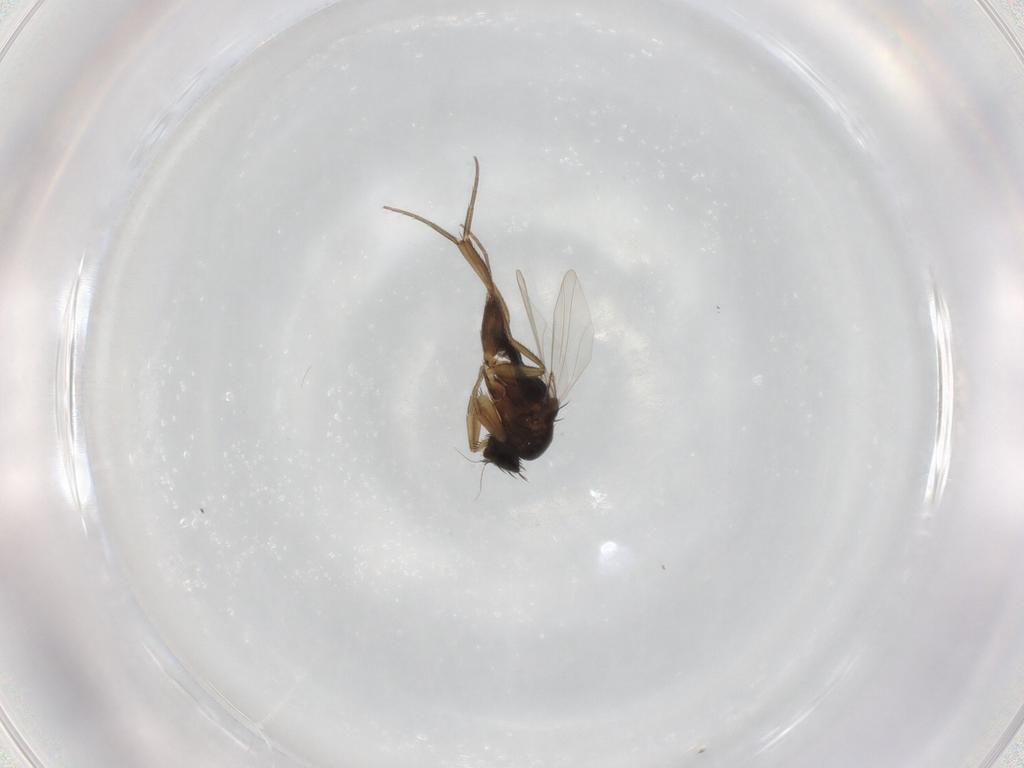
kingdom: Animalia
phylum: Arthropoda
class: Insecta
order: Diptera
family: Phoridae
